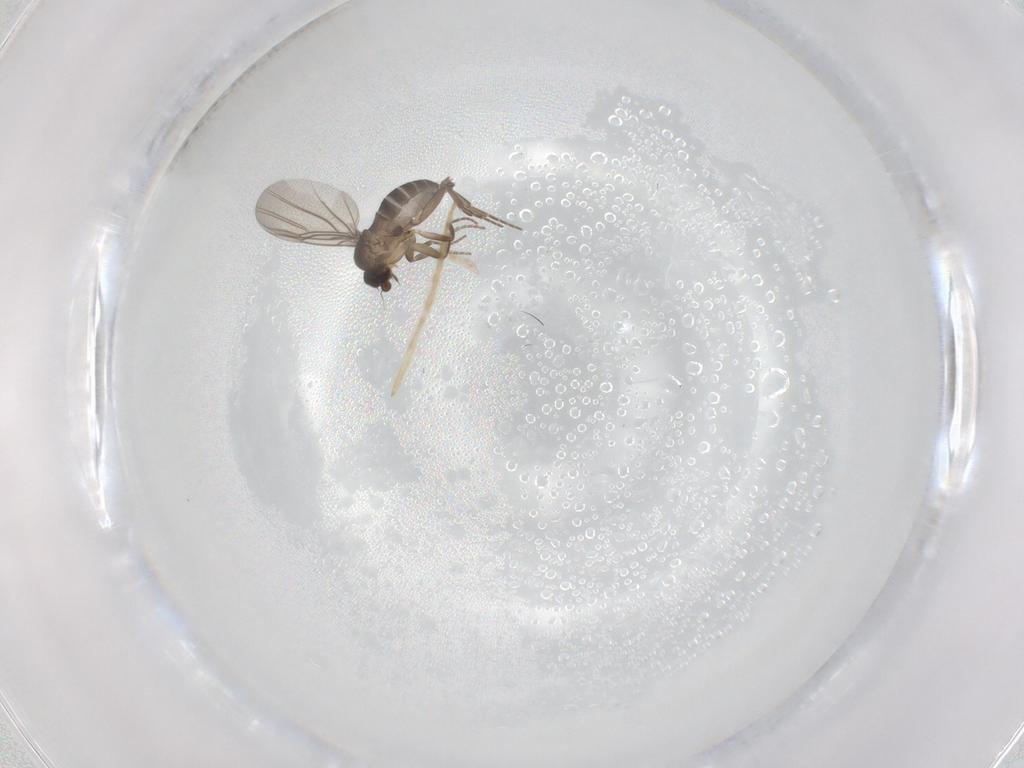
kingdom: Animalia
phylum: Arthropoda
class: Insecta
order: Diptera
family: Phoridae
